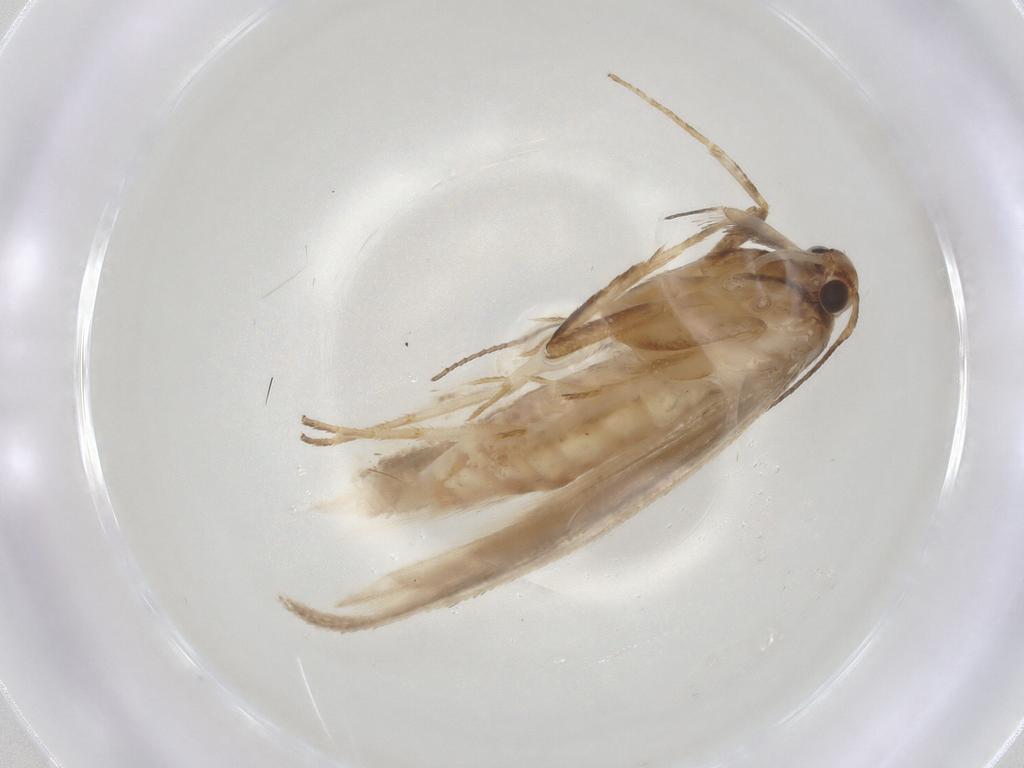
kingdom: Animalia
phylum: Arthropoda
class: Insecta
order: Lepidoptera
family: Gelechiidae
